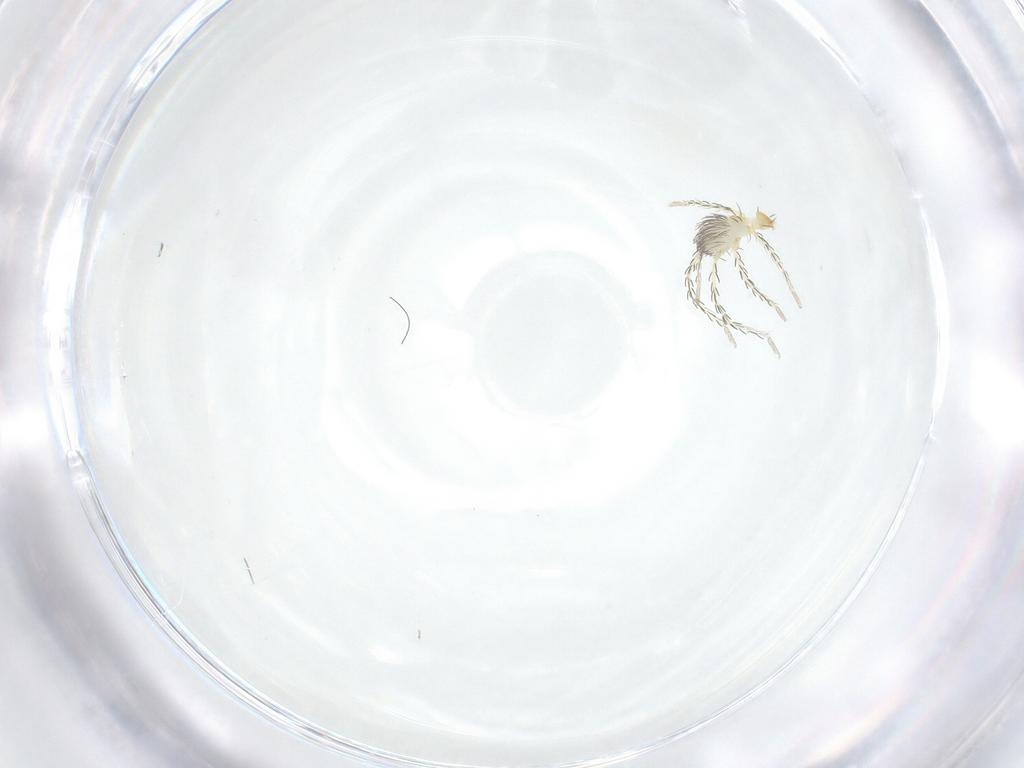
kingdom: Animalia
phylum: Arthropoda
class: Arachnida
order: Trombidiformes
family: Erythraeidae
